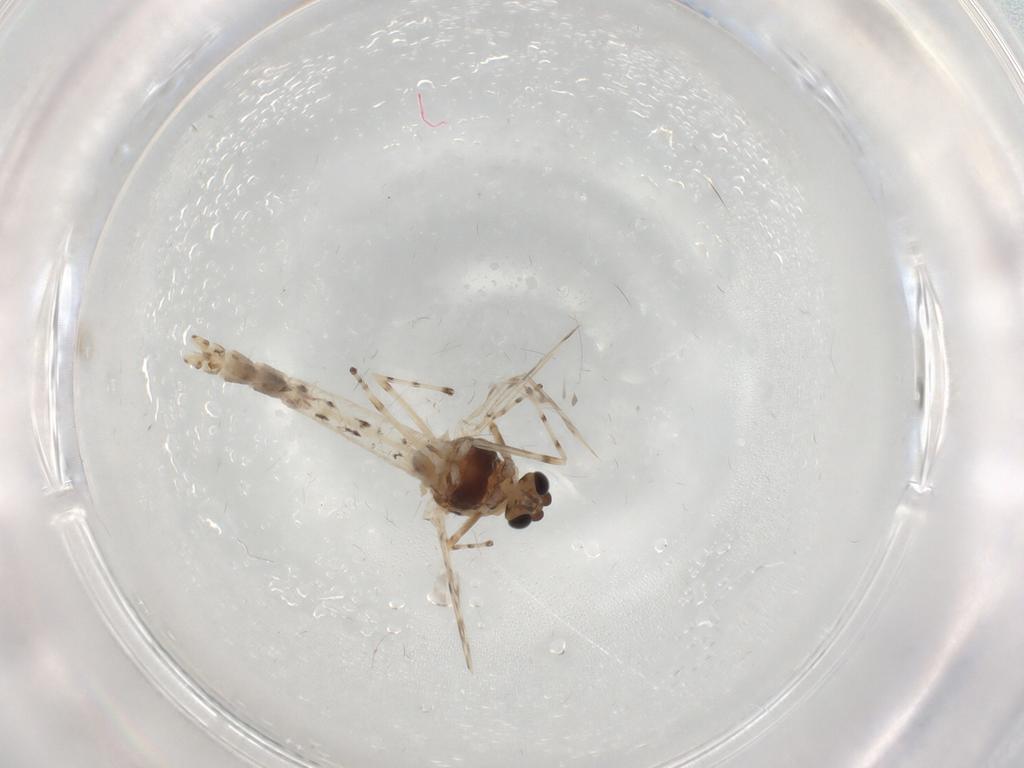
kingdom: Animalia
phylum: Arthropoda
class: Insecta
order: Diptera
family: Chironomidae
